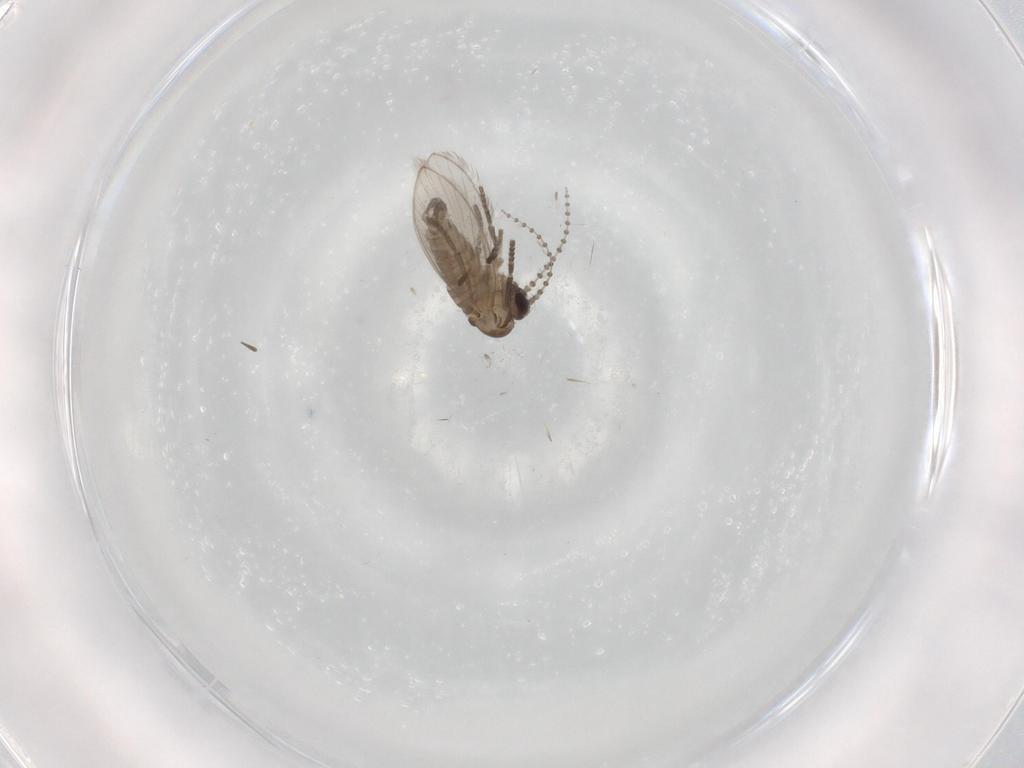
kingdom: Animalia
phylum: Arthropoda
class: Insecta
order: Diptera
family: Psychodidae
